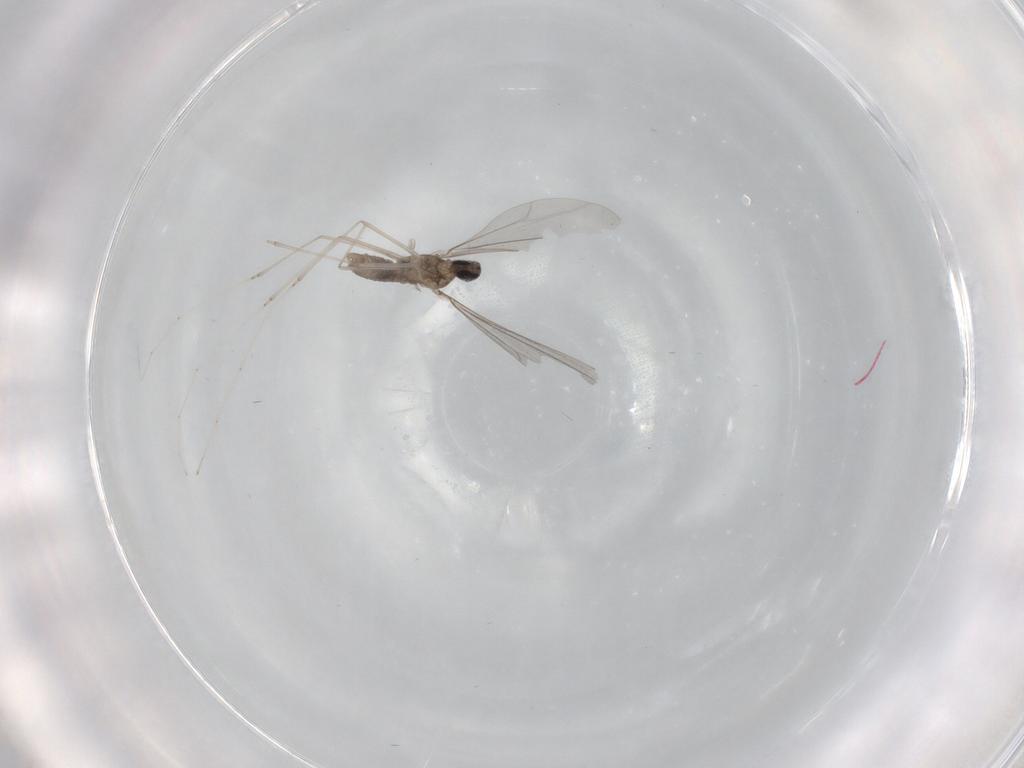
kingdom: Animalia
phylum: Arthropoda
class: Insecta
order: Diptera
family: Cecidomyiidae
